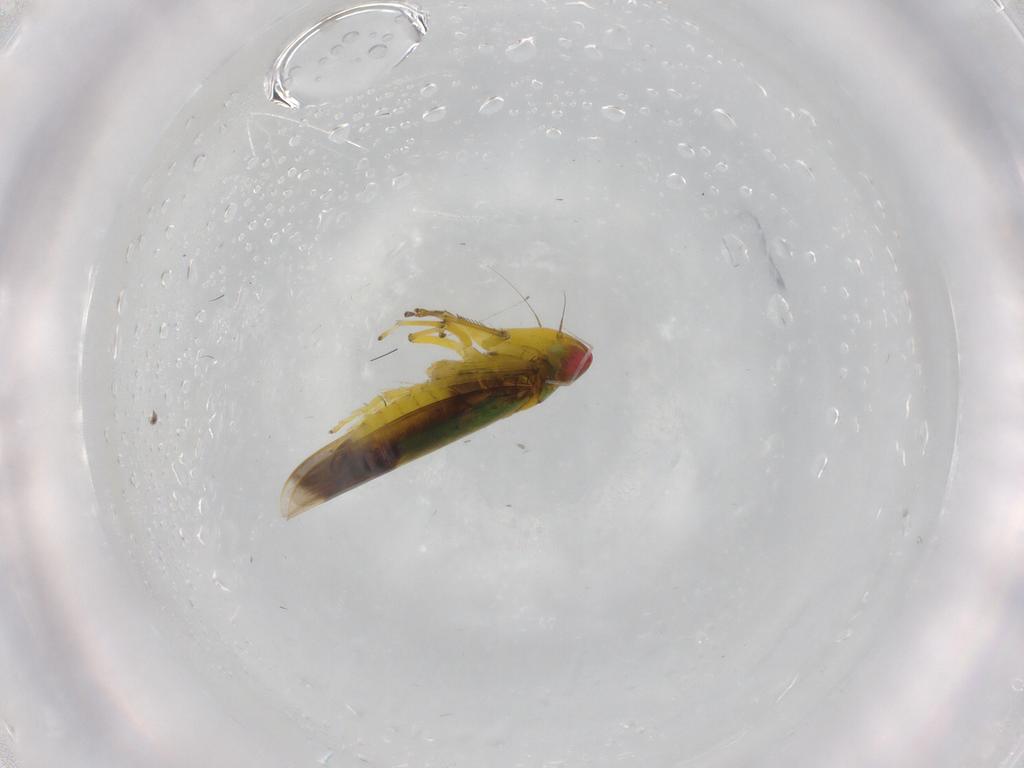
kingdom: Animalia
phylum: Arthropoda
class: Insecta
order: Hemiptera
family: Cicadellidae
